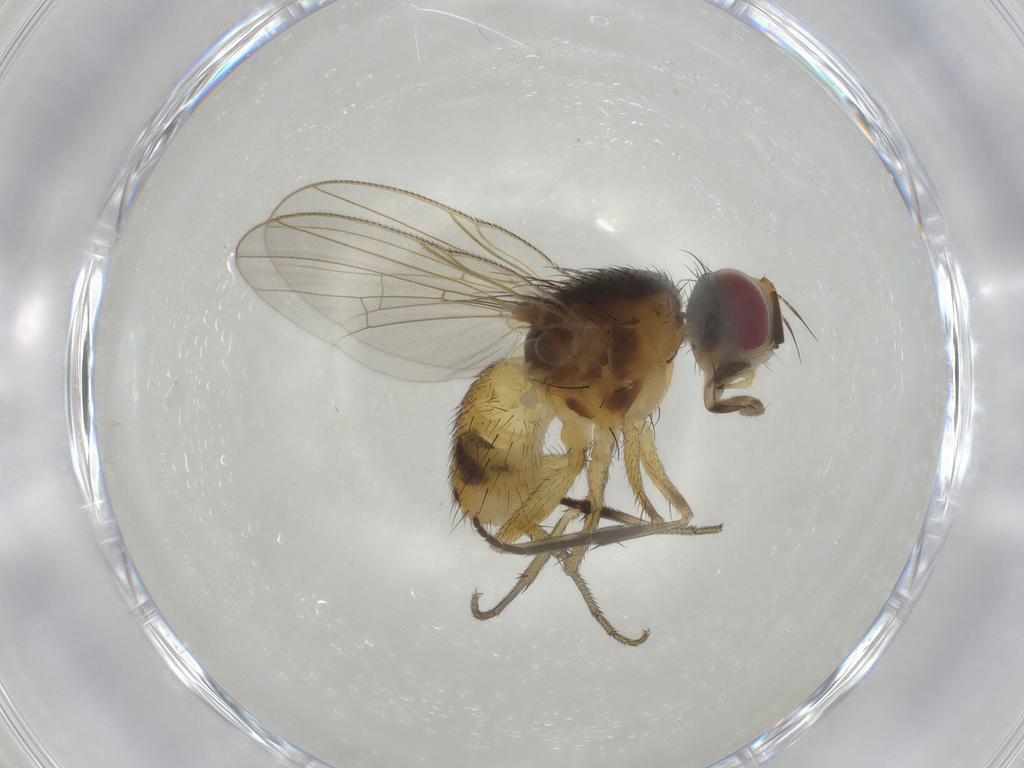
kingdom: Animalia
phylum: Arthropoda
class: Insecta
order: Diptera
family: Muscidae
